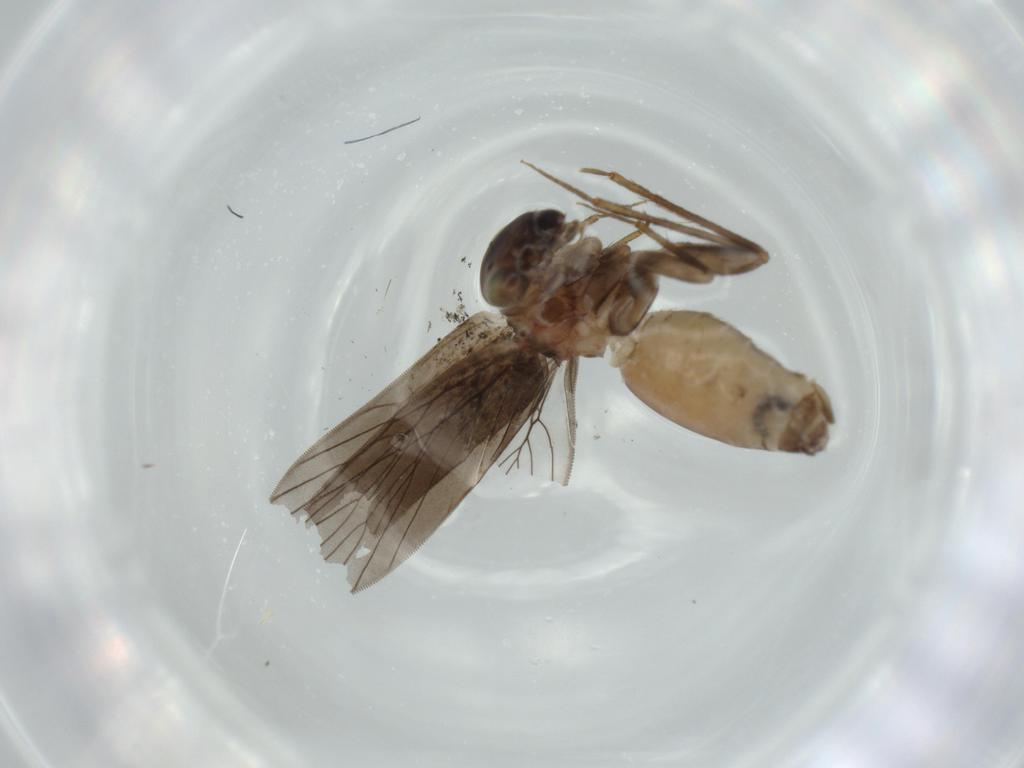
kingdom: Animalia
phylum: Arthropoda
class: Insecta
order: Psocodea
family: Lepidopsocidae
